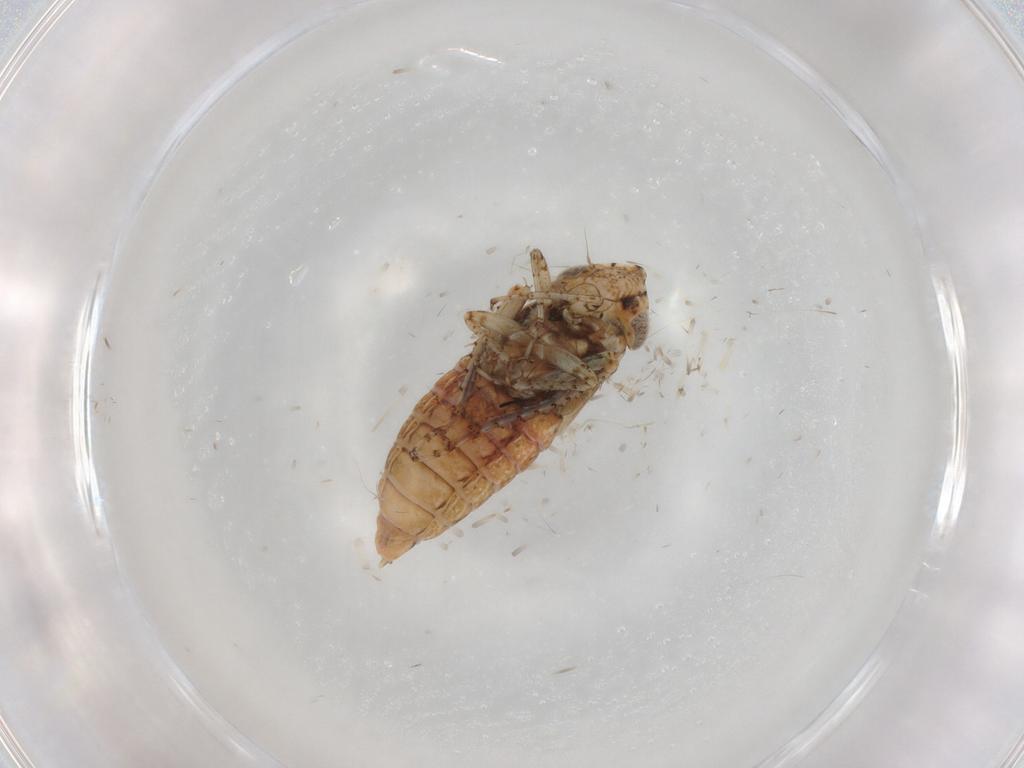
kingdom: Animalia
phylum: Arthropoda
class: Insecta
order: Hemiptera
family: Cicadellidae
